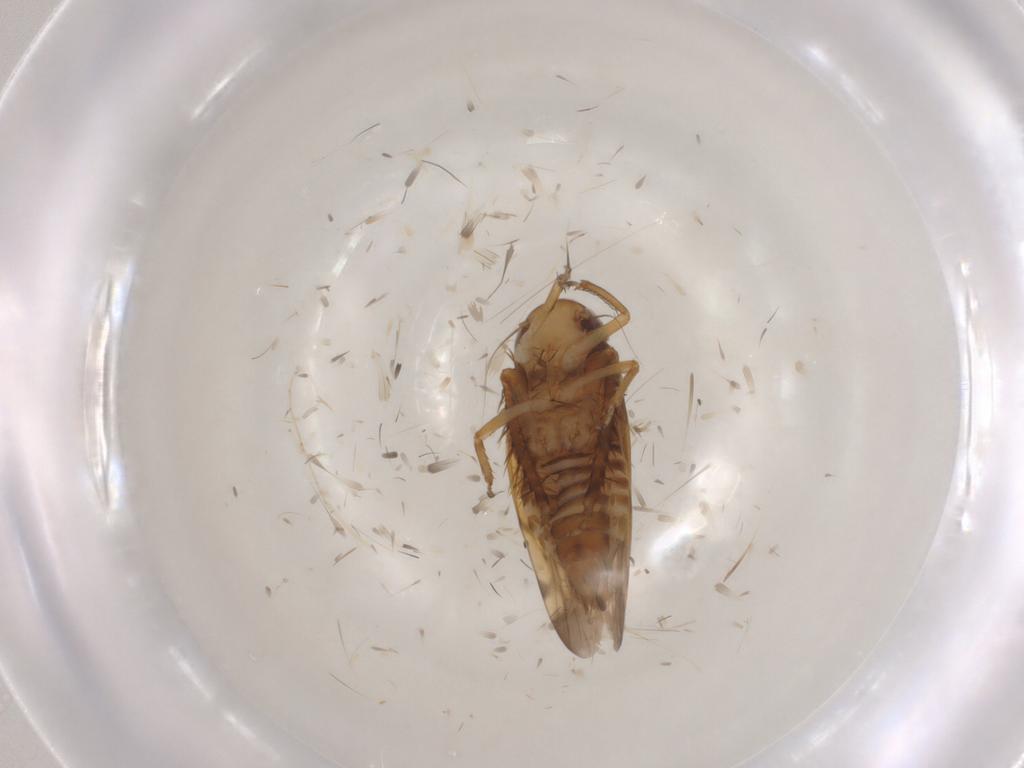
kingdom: Animalia
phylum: Arthropoda
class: Insecta
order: Hemiptera
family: Cicadellidae
